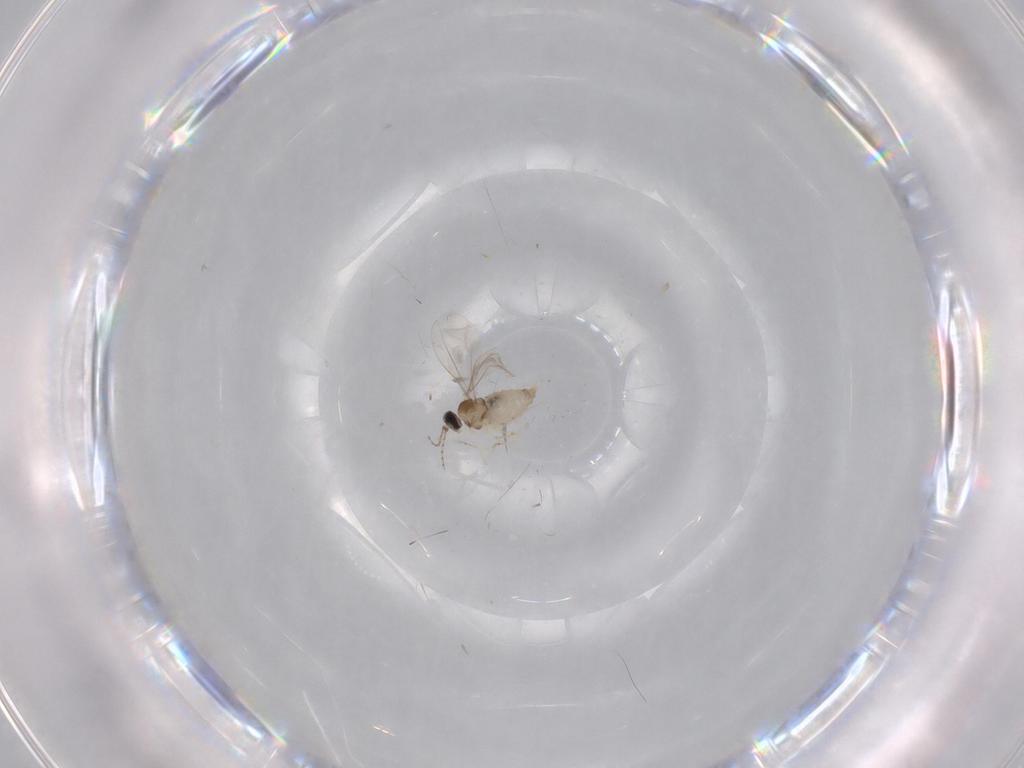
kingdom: Animalia
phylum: Arthropoda
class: Insecta
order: Diptera
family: Cecidomyiidae
